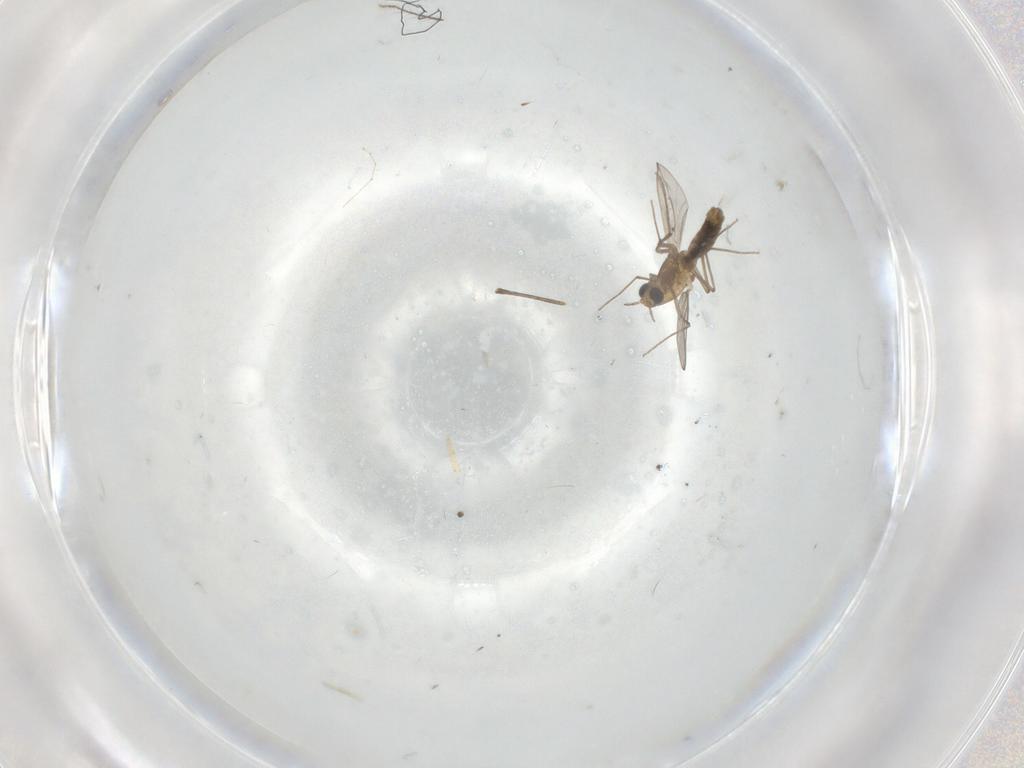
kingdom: Animalia
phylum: Arthropoda
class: Insecta
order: Diptera
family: Cecidomyiidae
